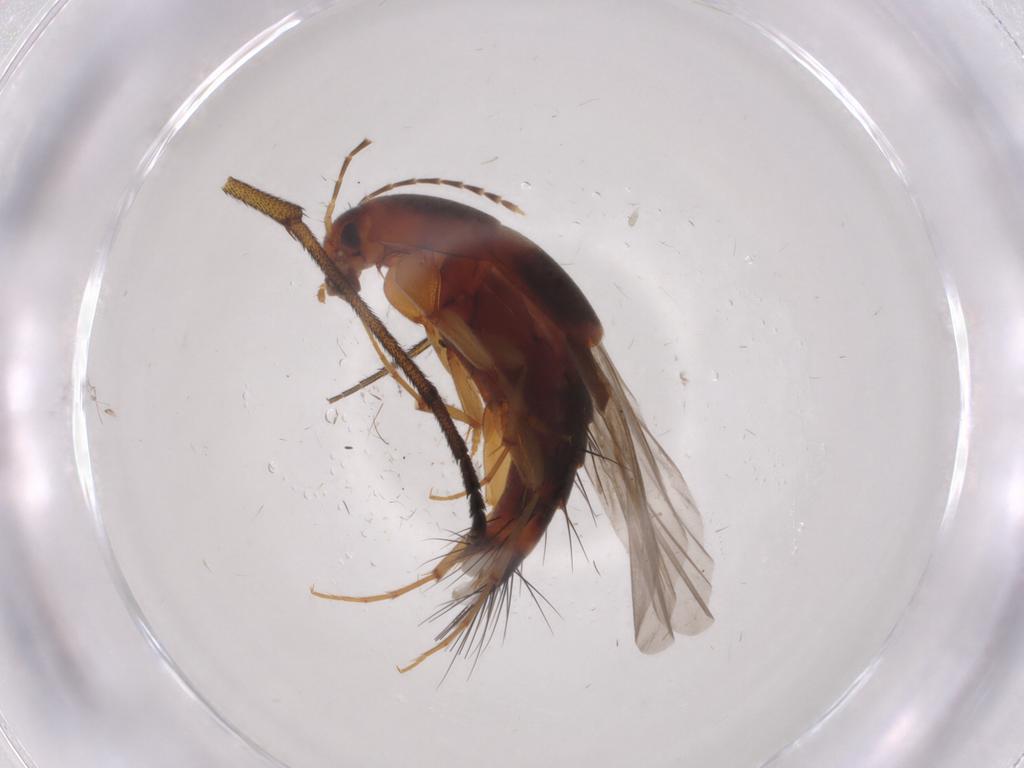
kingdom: Animalia
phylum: Arthropoda
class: Insecta
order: Coleoptera
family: Staphylinidae
